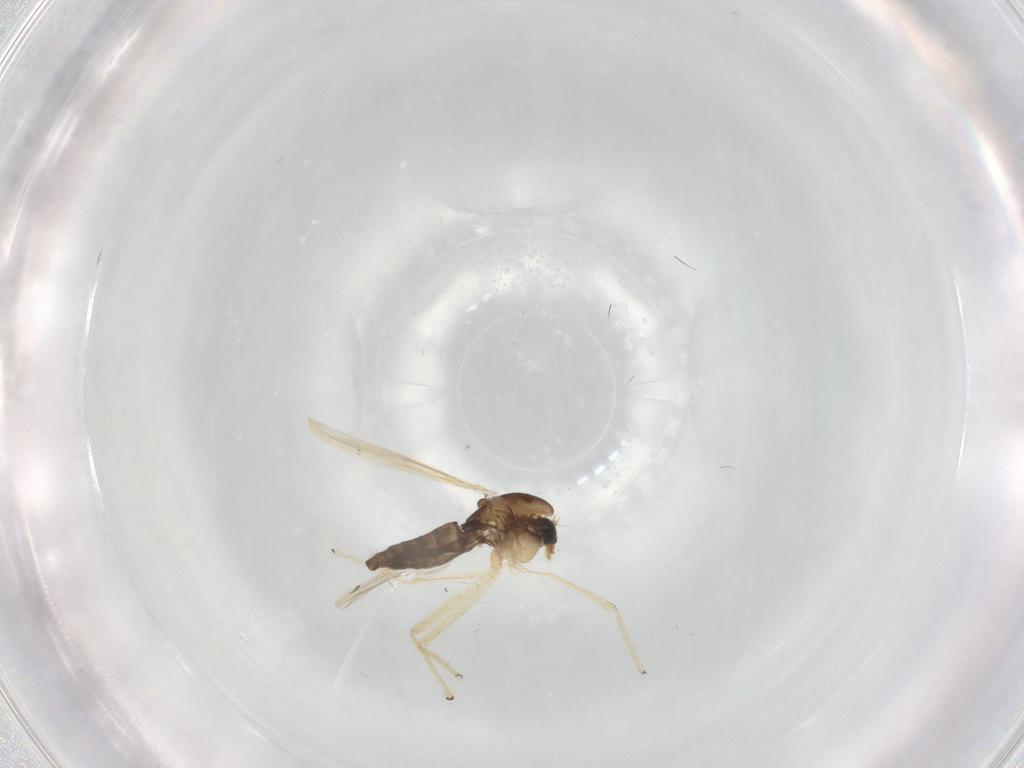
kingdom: Animalia
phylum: Arthropoda
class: Insecta
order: Diptera
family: Chironomidae
